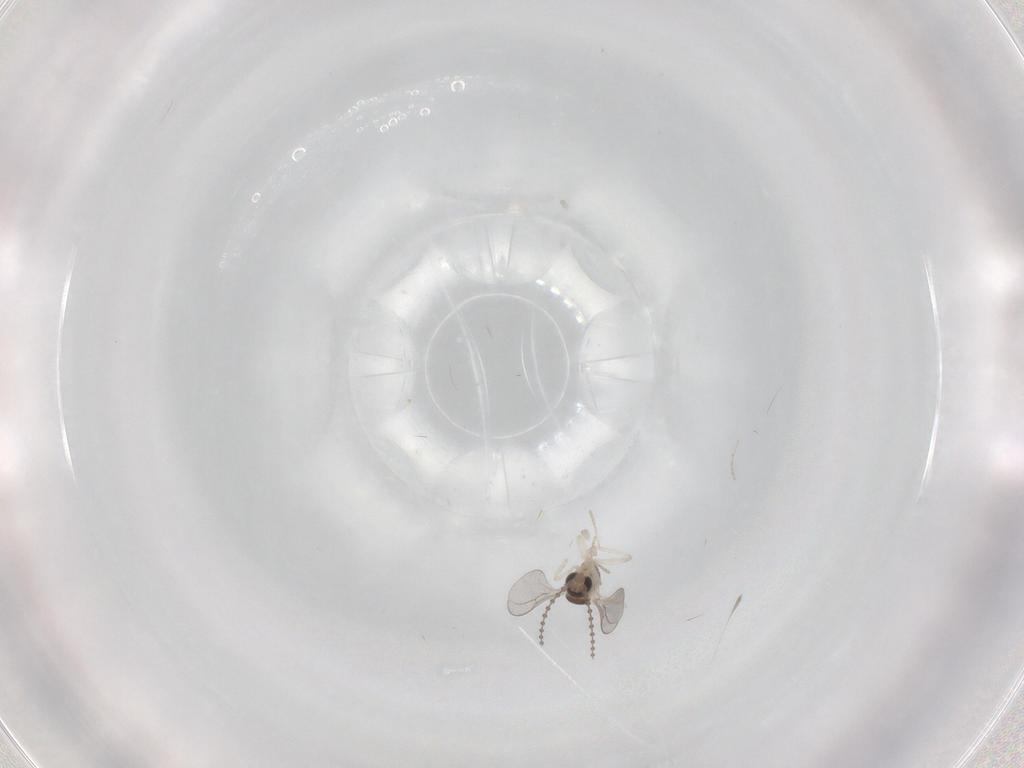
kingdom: Animalia
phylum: Arthropoda
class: Insecta
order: Diptera
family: Cecidomyiidae
